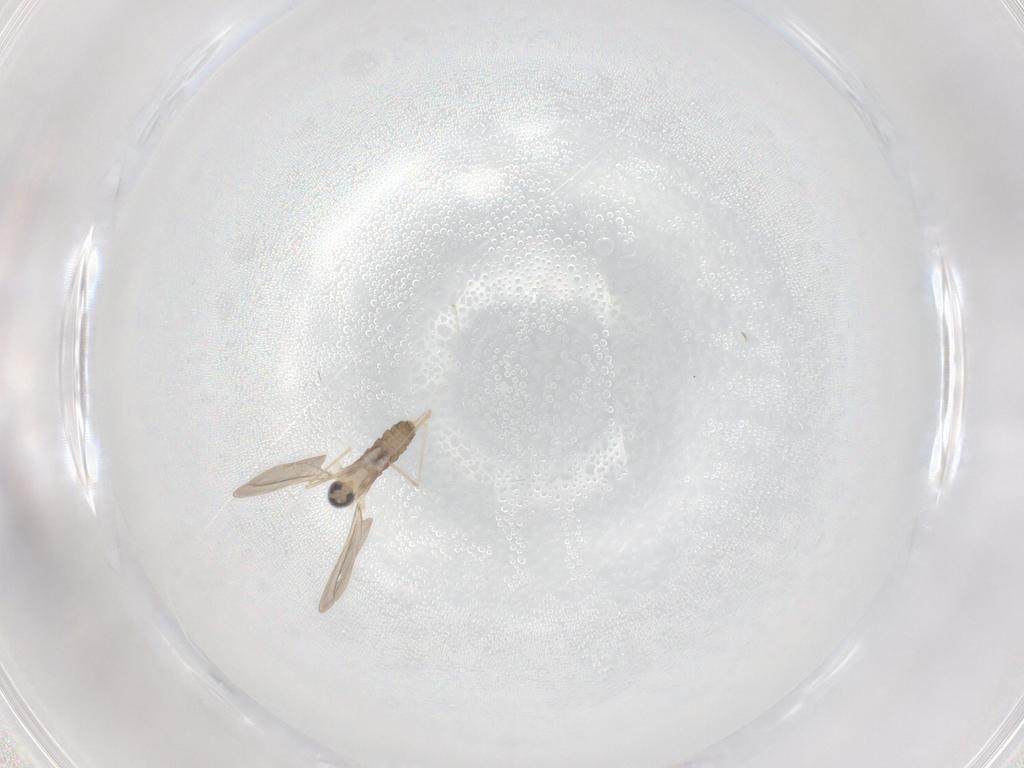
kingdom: Animalia
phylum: Arthropoda
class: Insecta
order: Diptera
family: Cecidomyiidae
